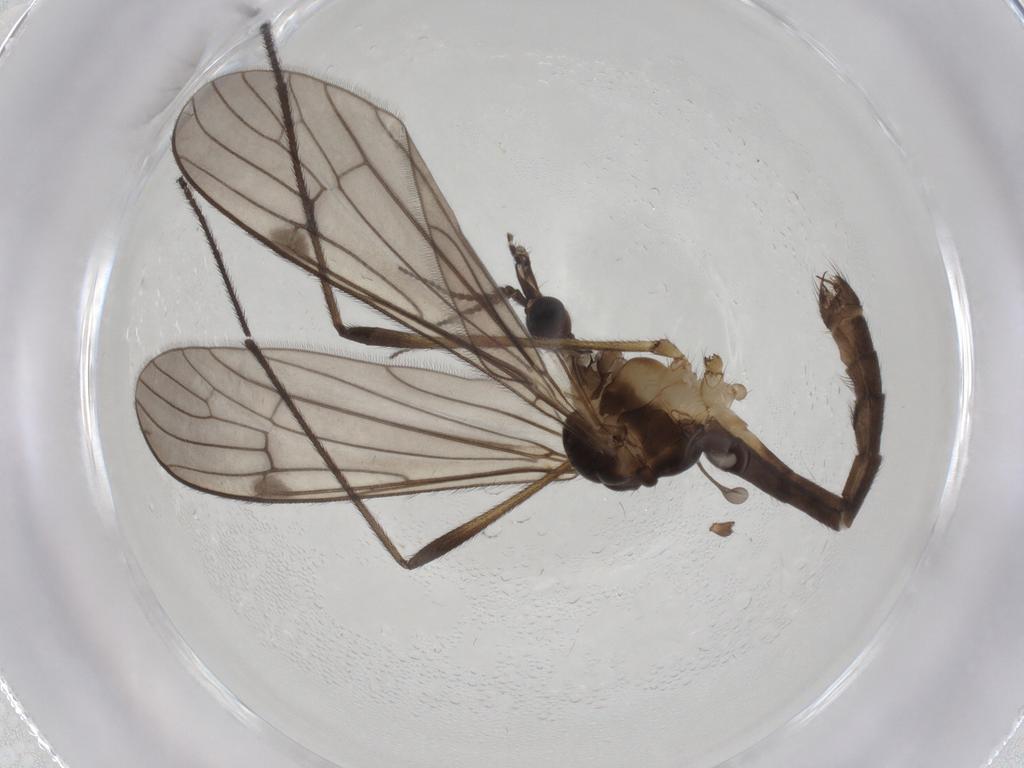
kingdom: Animalia
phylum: Arthropoda
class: Insecta
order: Diptera
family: Limoniidae
